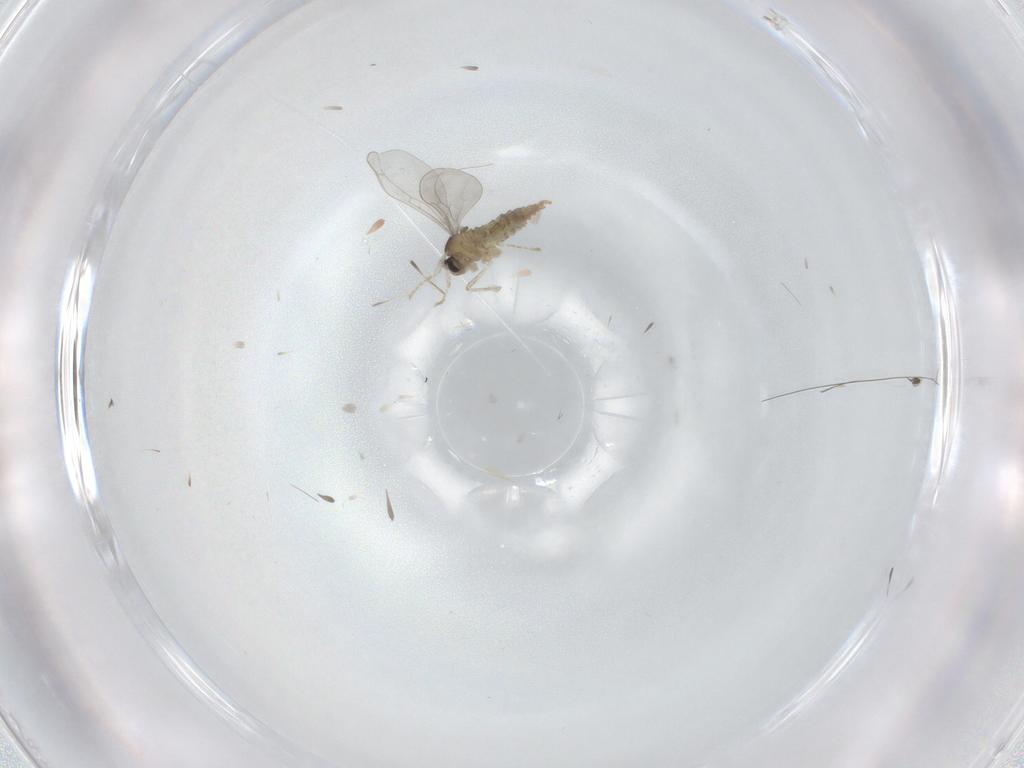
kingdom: Animalia
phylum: Arthropoda
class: Insecta
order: Diptera
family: Cecidomyiidae
